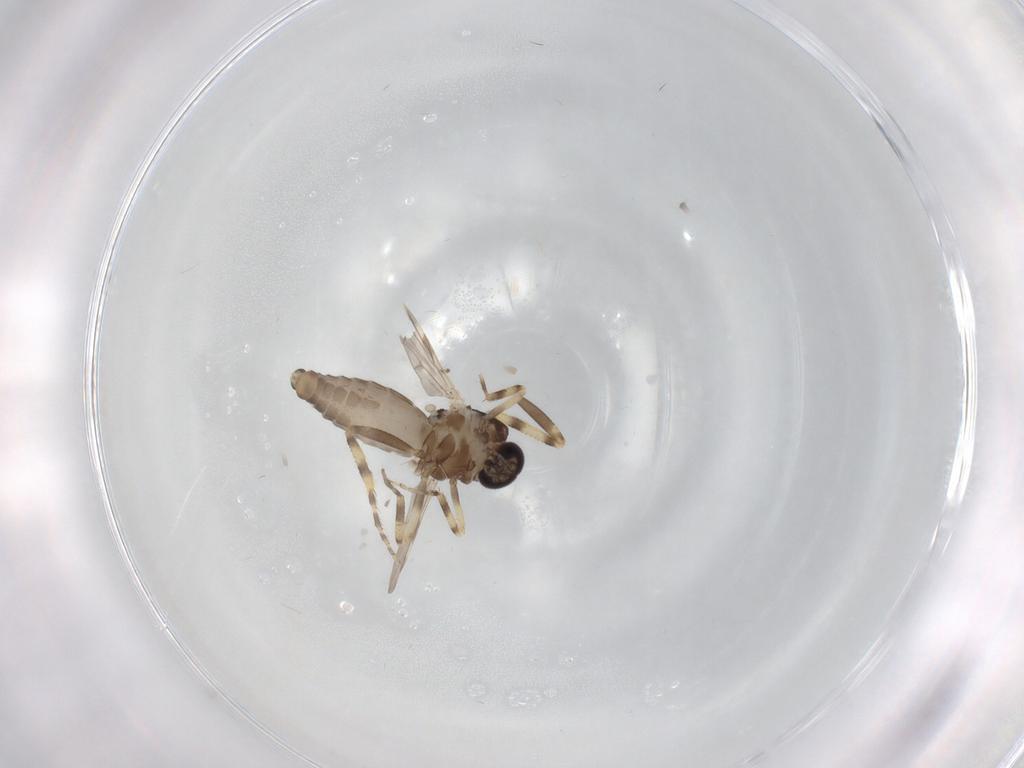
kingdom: Animalia
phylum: Arthropoda
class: Insecta
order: Diptera
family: Ceratopogonidae
